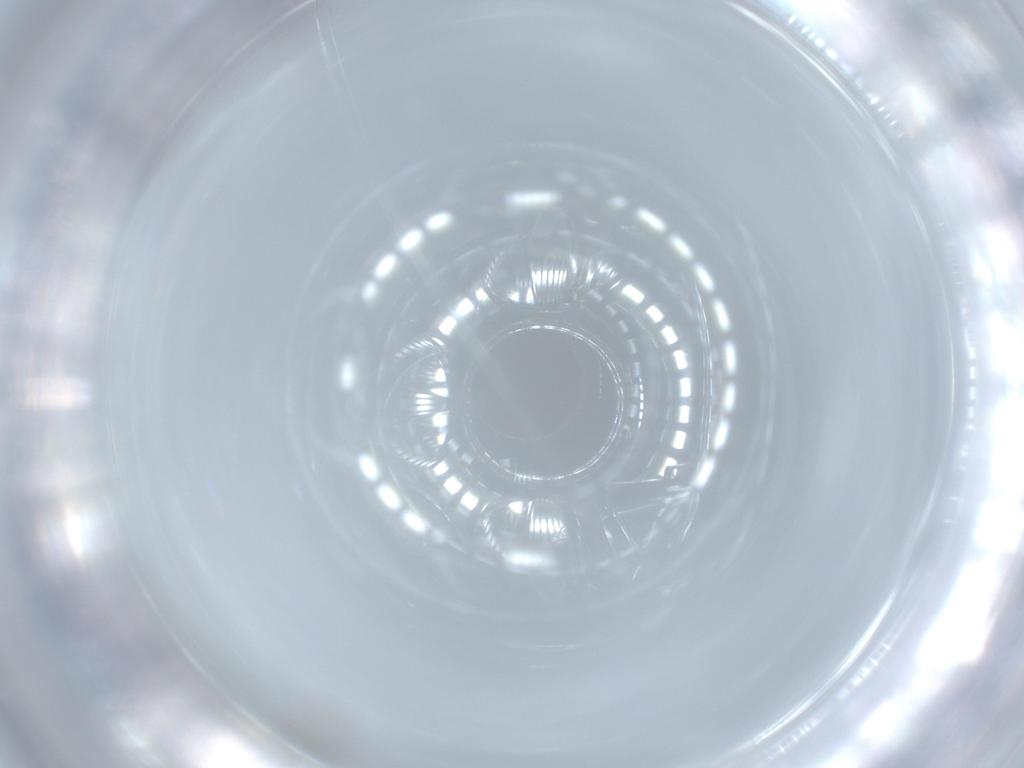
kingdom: Animalia
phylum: Arthropoda
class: Insecta
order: Diptera
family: Cecidomyiidae
